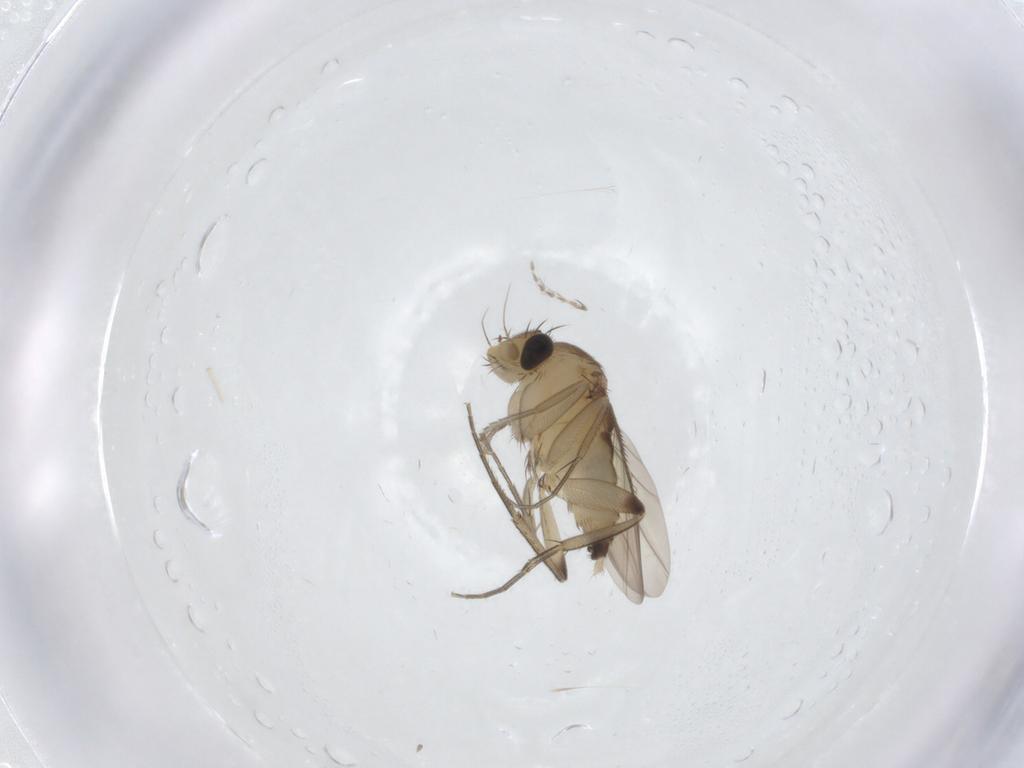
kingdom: Animalia
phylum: Arthropoda
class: Insecta
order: Diptera
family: Phoridae
